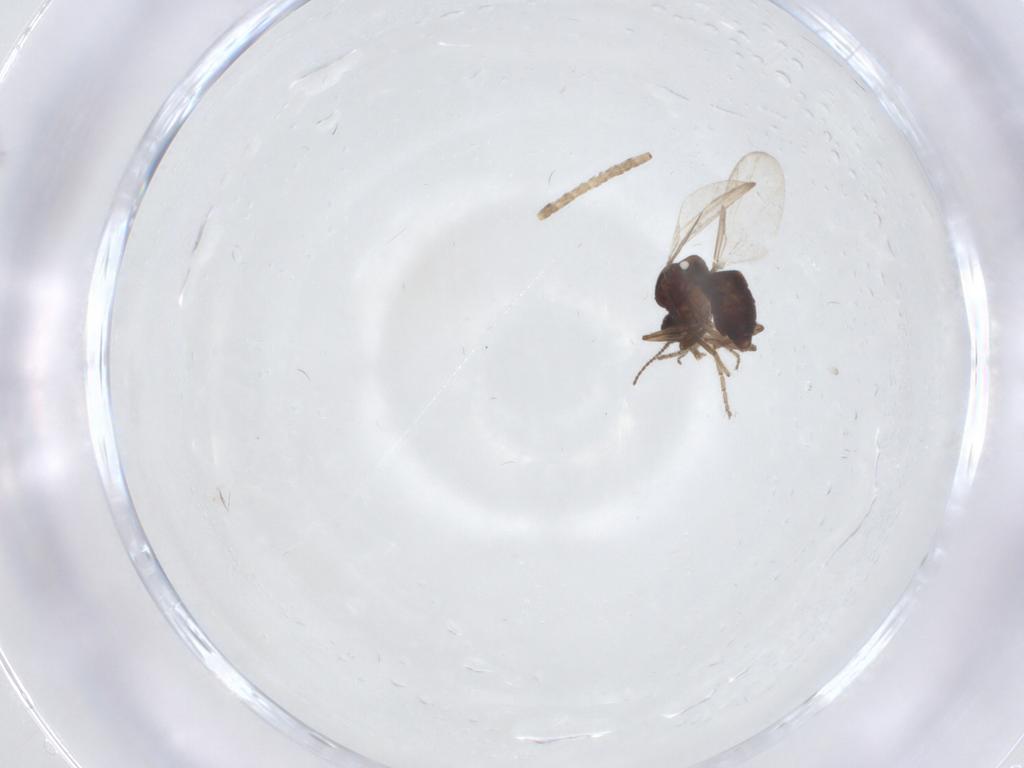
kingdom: Animalia
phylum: Arthropoda
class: Insecta
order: Diptera
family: Ceratopogonidae
